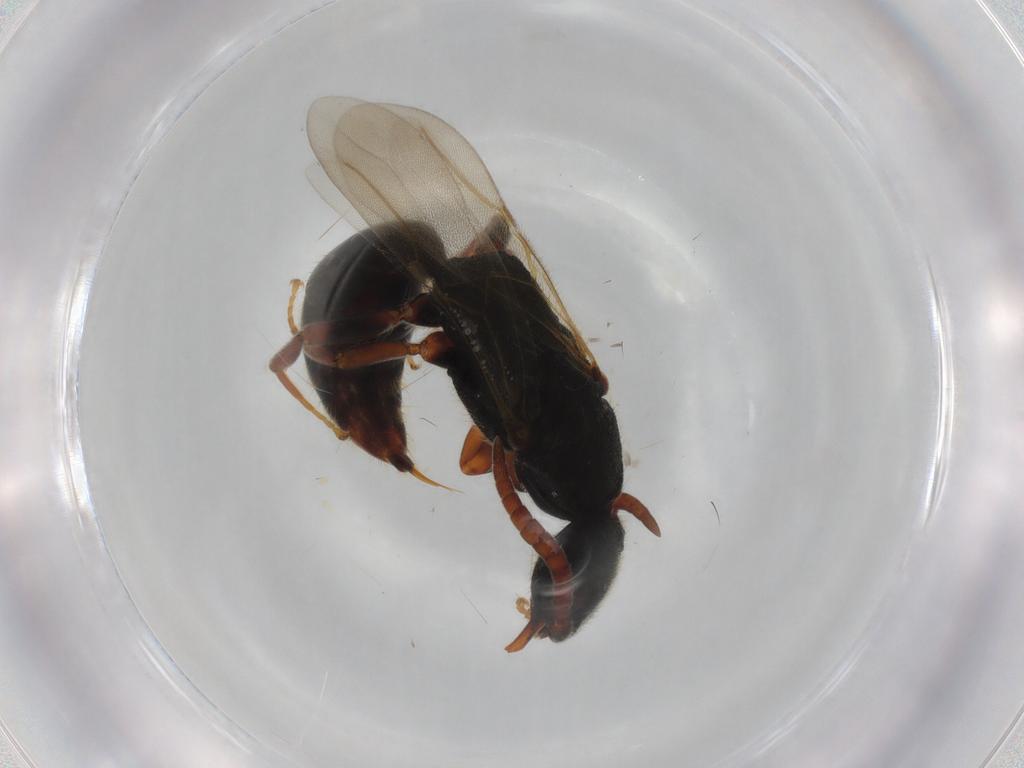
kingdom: Animalia
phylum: Arthropoda
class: Insecta
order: Hymenoptera
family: Bethylidae
